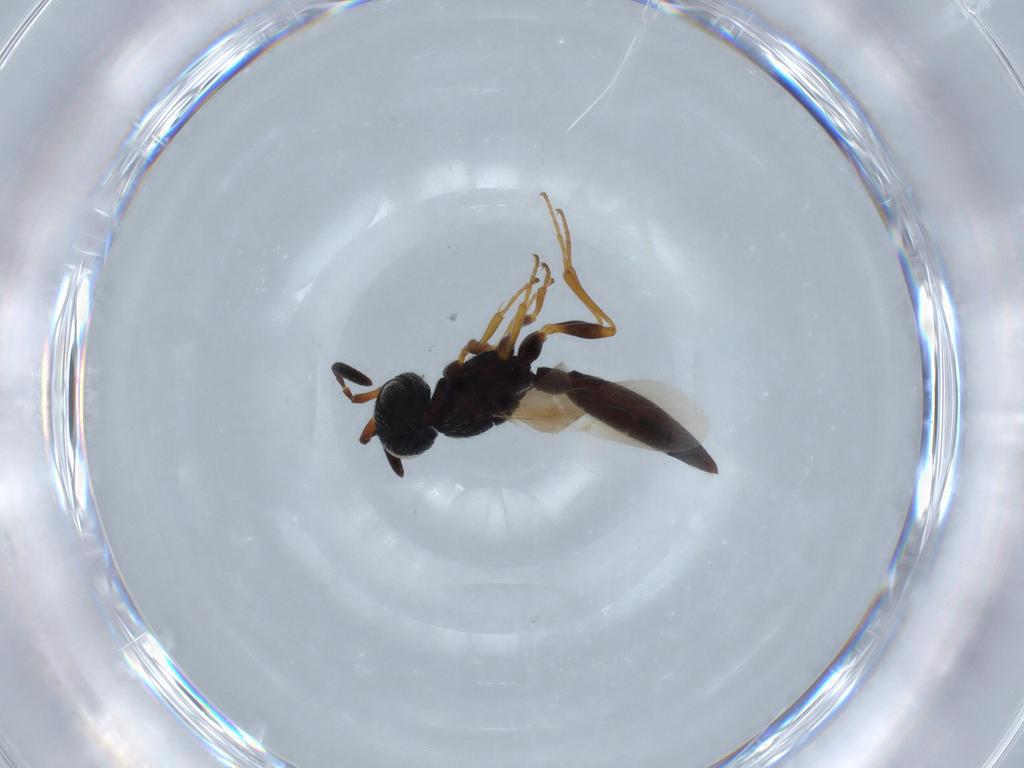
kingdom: Animalia
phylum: Arthropoda
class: Insecta
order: Hymenoptera
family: Scelionidae
